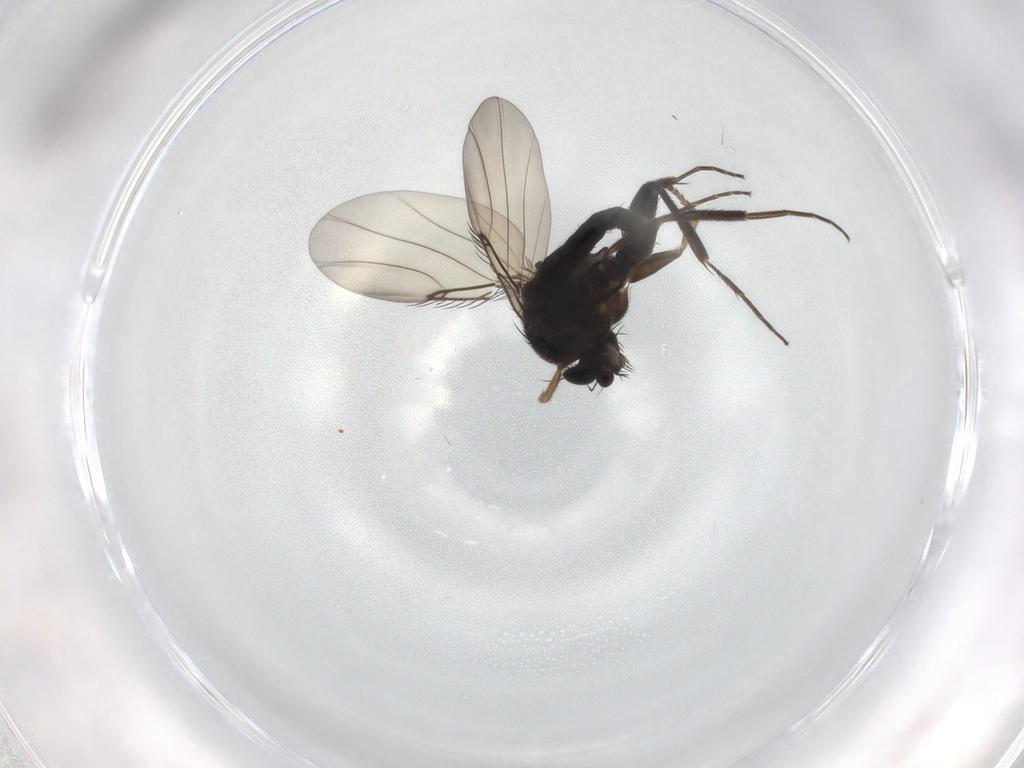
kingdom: Animalia
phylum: Arthropoda
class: Insecta
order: Diptera
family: Phoridae
